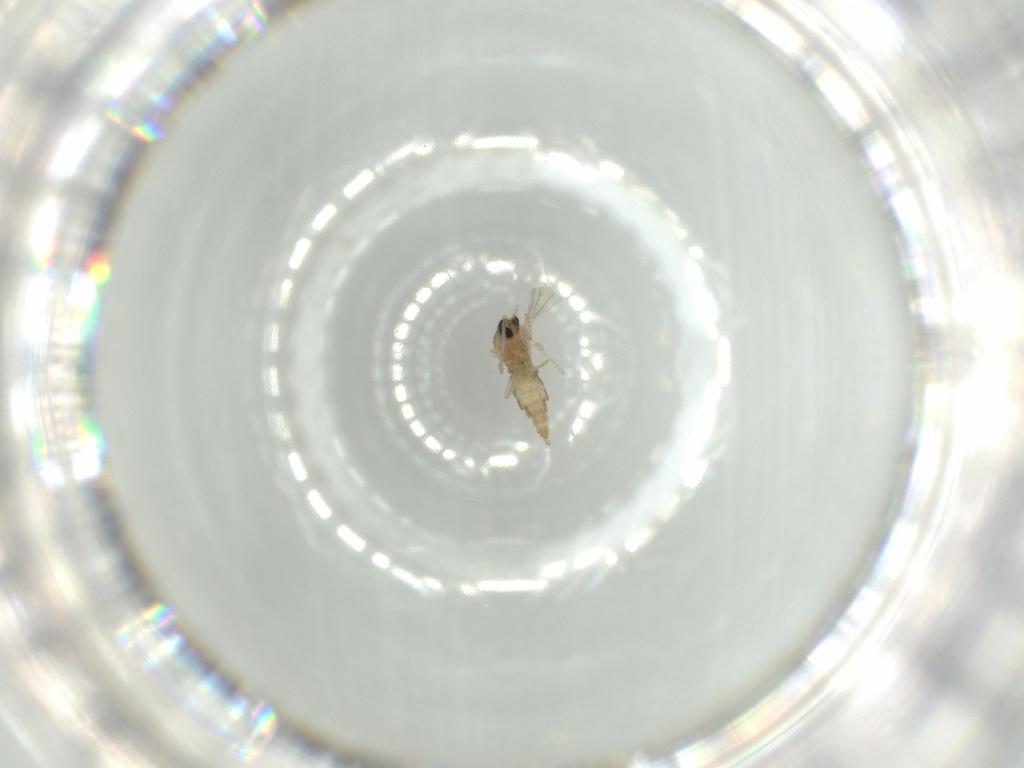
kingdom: Animalia
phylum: Arthropoda
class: Insecta
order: Diptera
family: Cecidomyiidae
